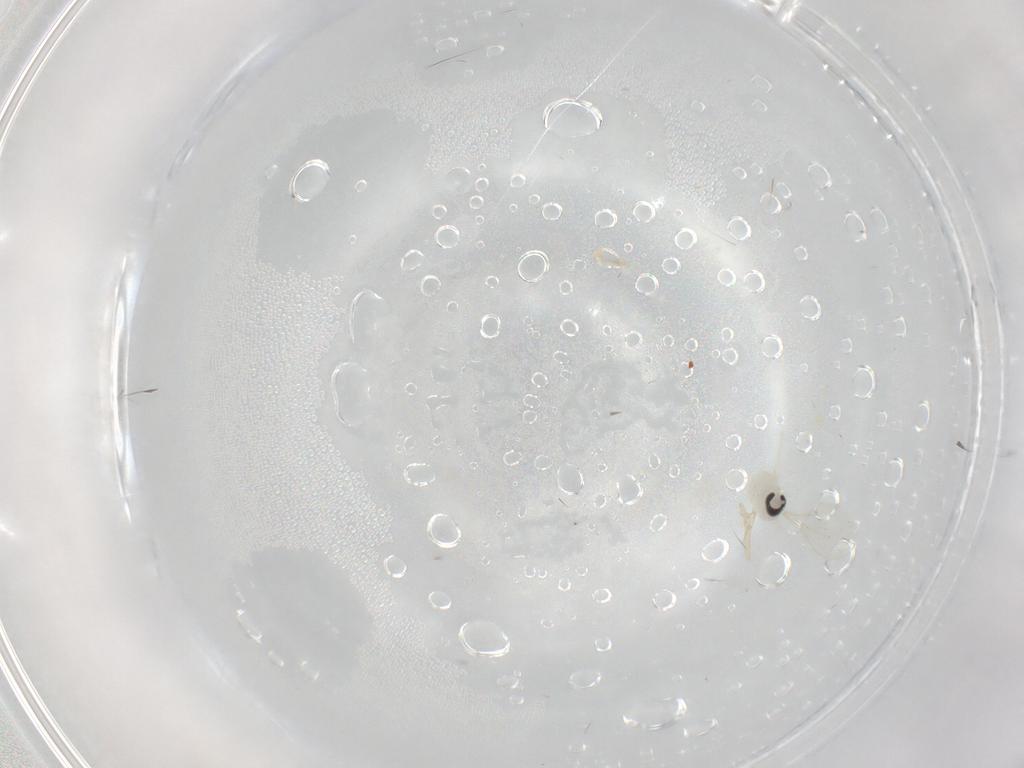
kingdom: Animalia
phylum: Arthropoda
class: Insecta
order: Diptera
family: Cecidomyiidae
